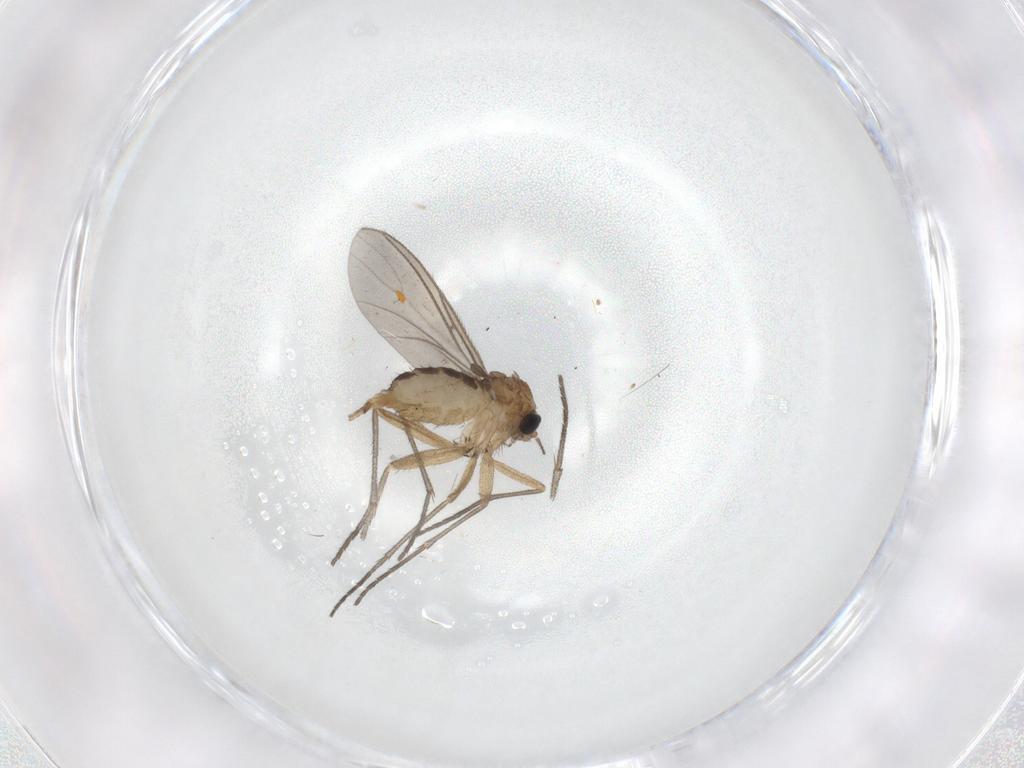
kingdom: Animalia
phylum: Arthropoda
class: Insecta
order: Diptera
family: Sciaridae
